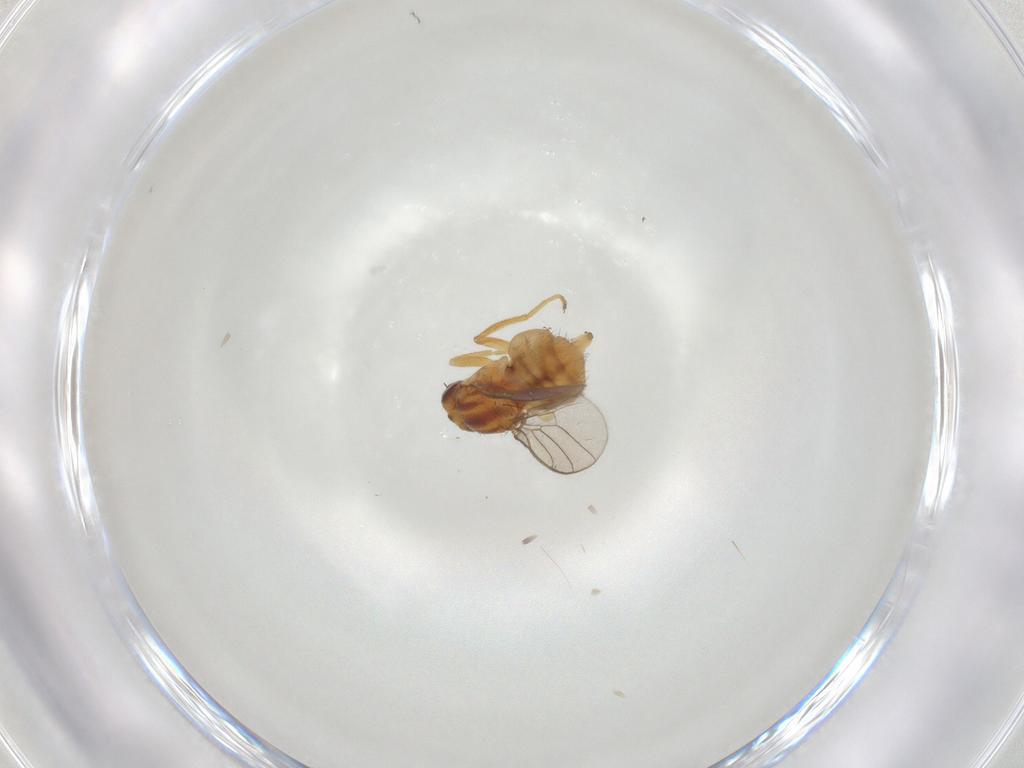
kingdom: Animalia
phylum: Arthropoda
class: Insecta
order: Diptera
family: Chloropidae
